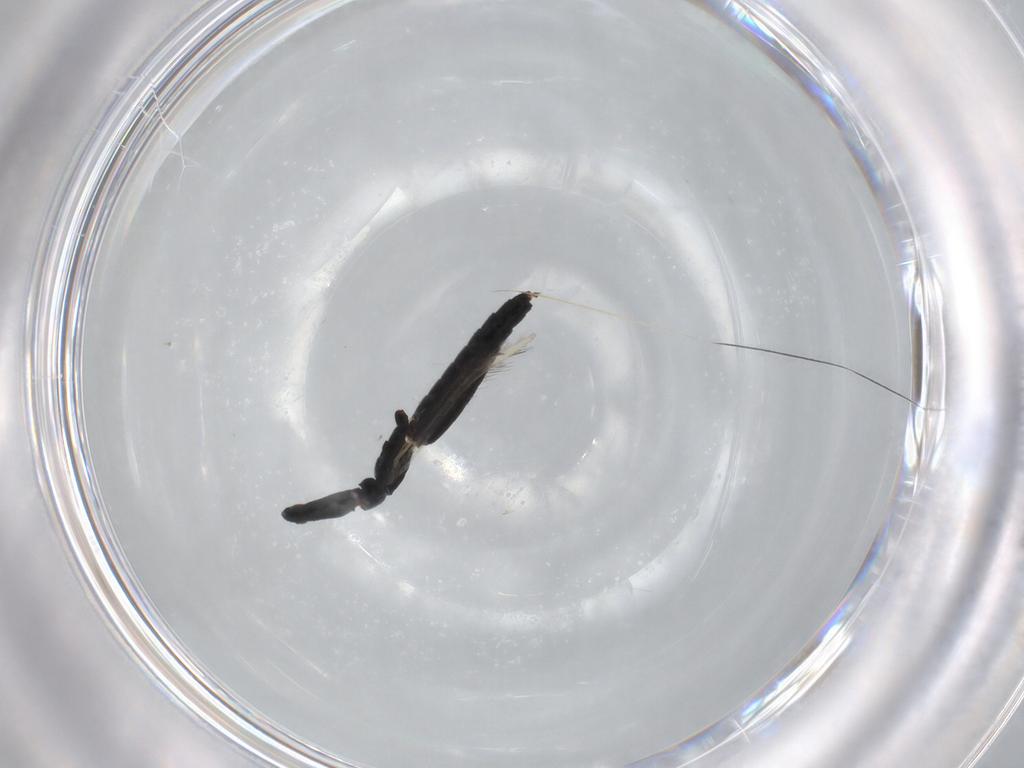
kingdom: Animalia
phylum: Arthropoda
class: Insecta
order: Thysanoptera
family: Phlaeothripidae
